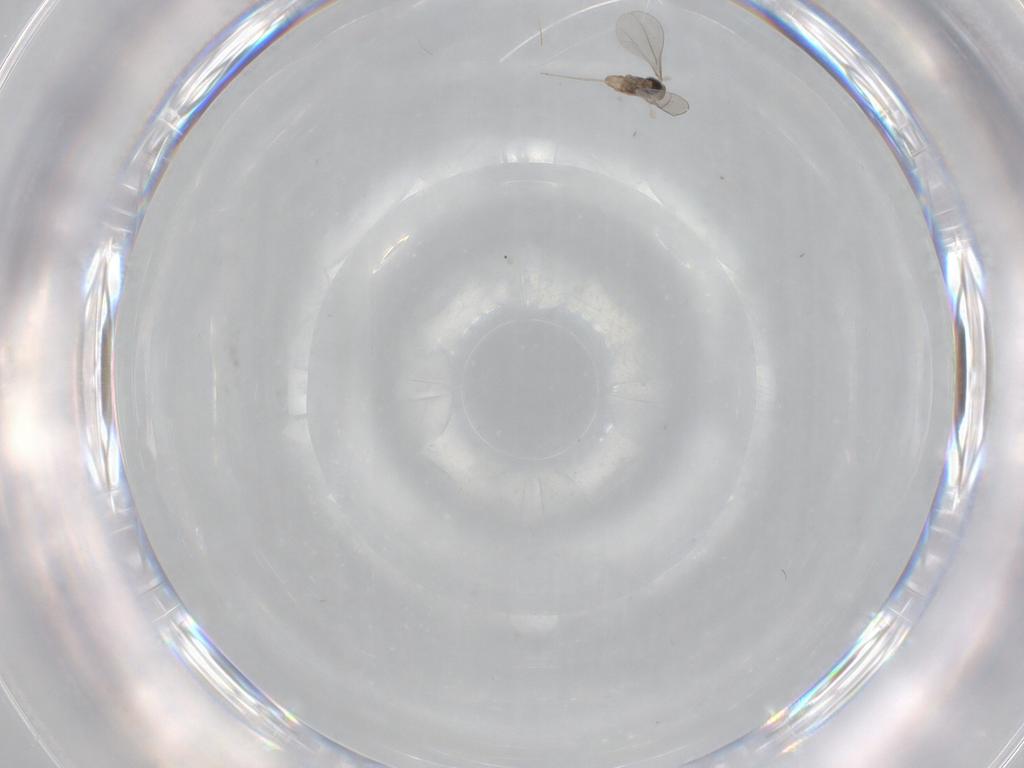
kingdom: Animalia
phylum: Arthropoda
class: Insecta
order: Diptera
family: Cecidomyiidae
